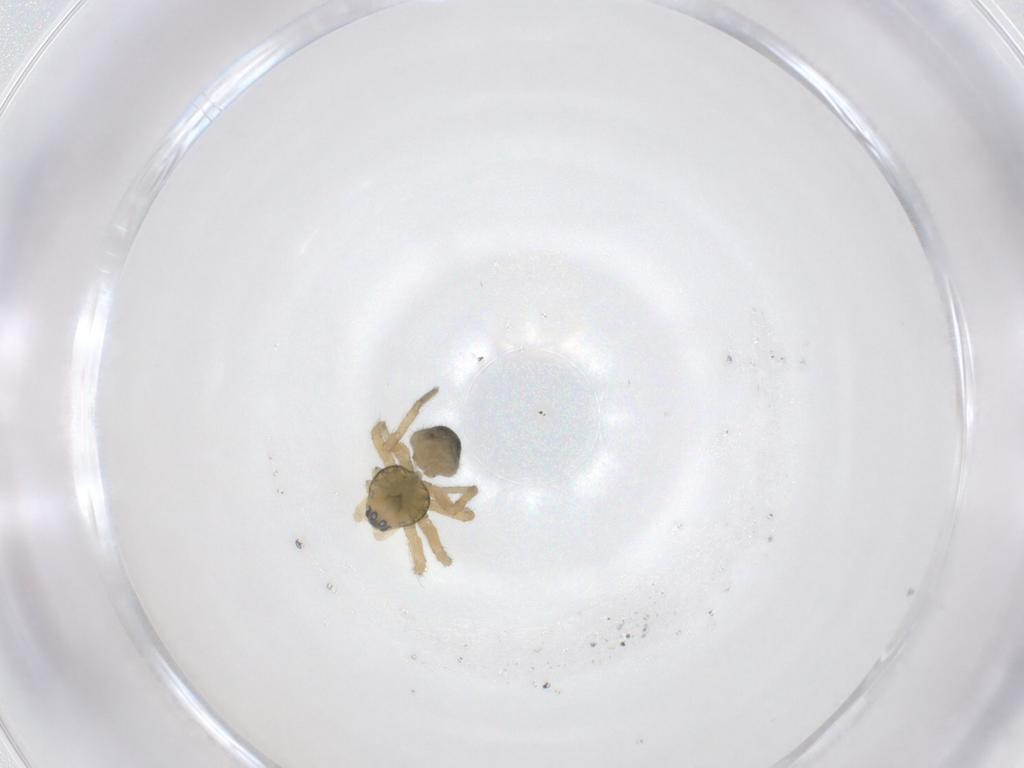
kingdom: Animalia
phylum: Arthropoda
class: Arachnida
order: Araneae
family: Linyphiidae
